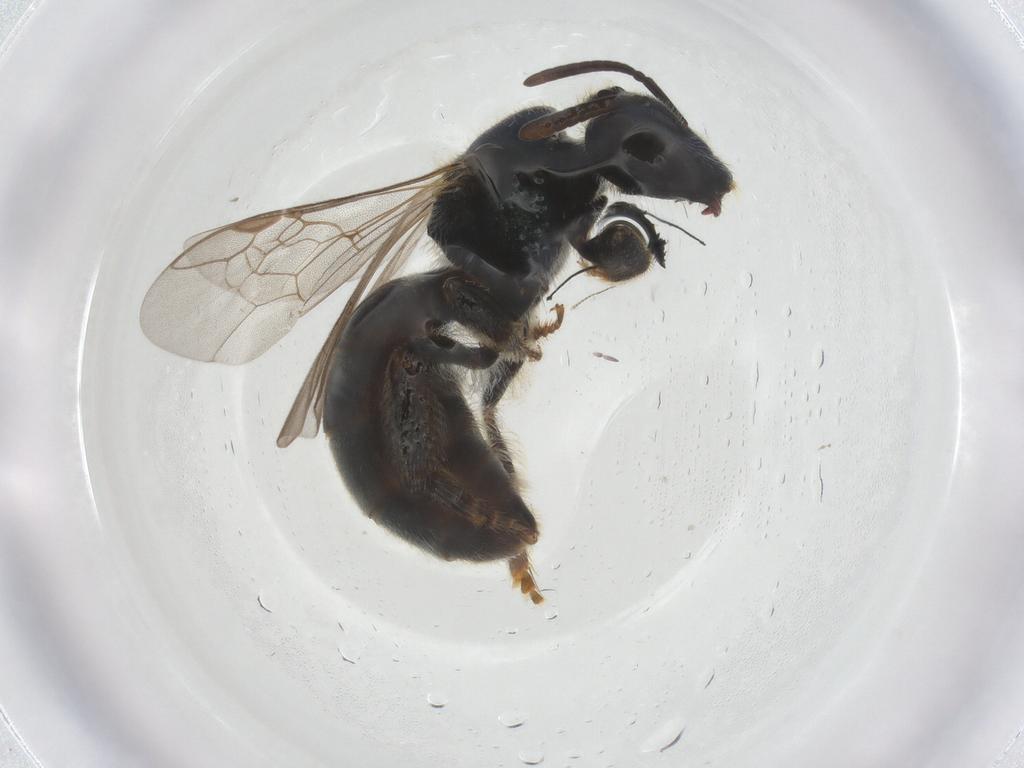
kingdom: Animalia
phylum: Arthropoda
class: Insecta
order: Hymenoptera
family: Halictidae
